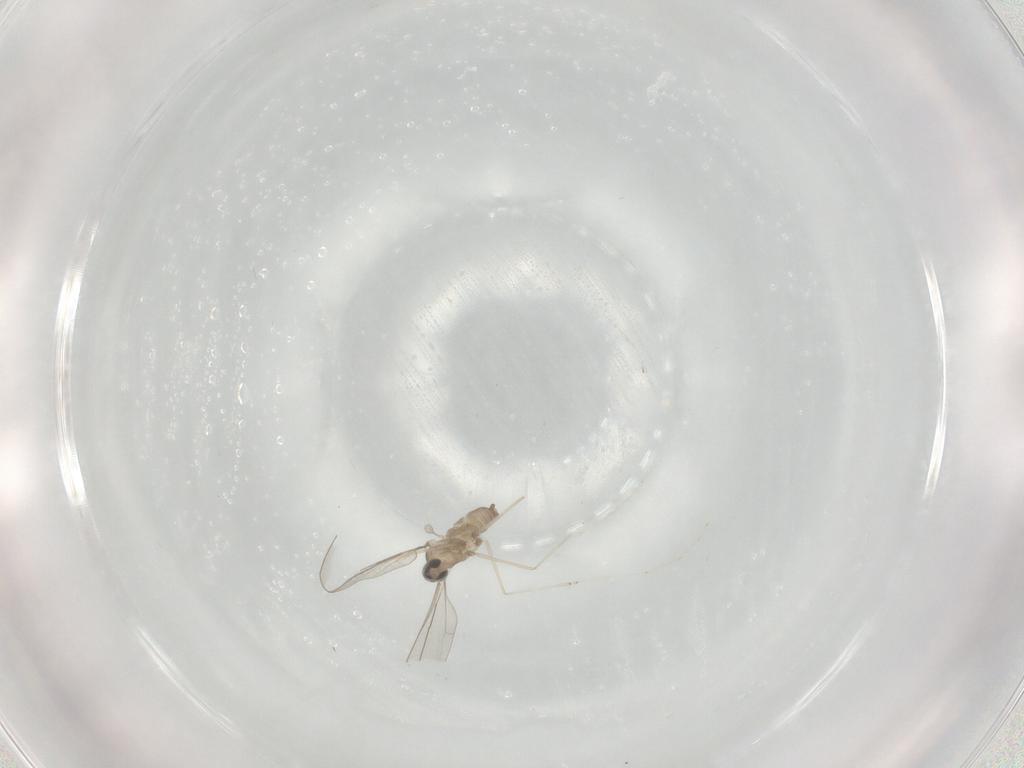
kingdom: Animalia
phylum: Arthropoda
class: Insecta
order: Diptera
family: Cecidomyiidae
